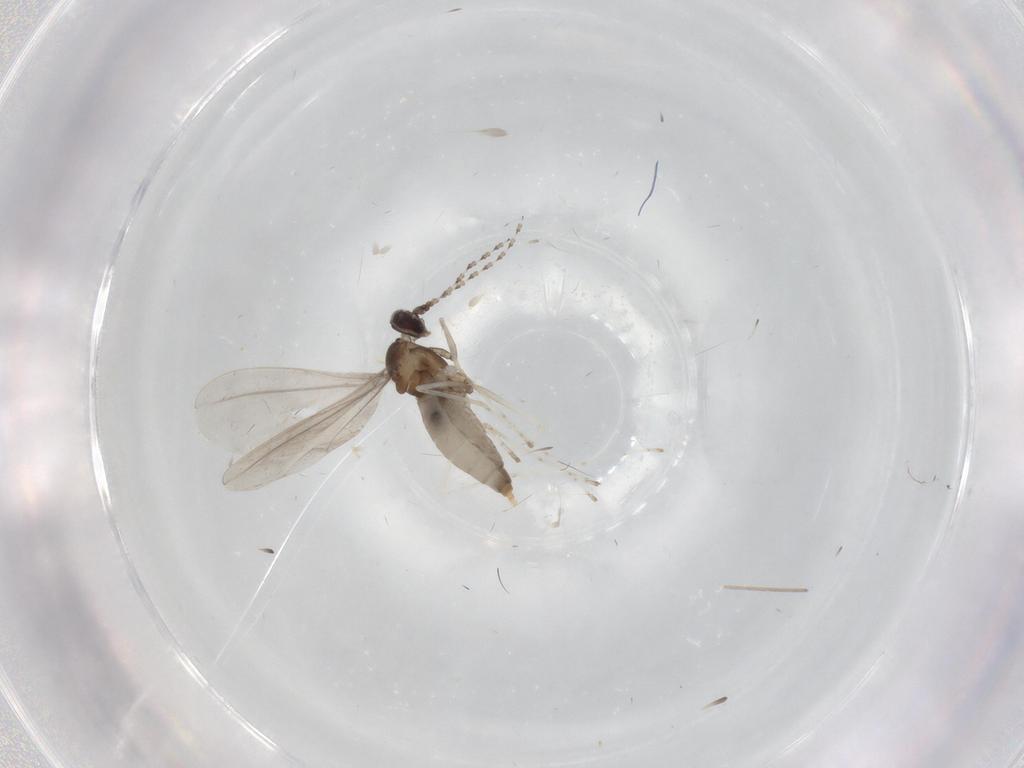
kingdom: Animalia
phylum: Arthropoda
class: Insecta
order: Diptera
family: Cecidomyiidae
